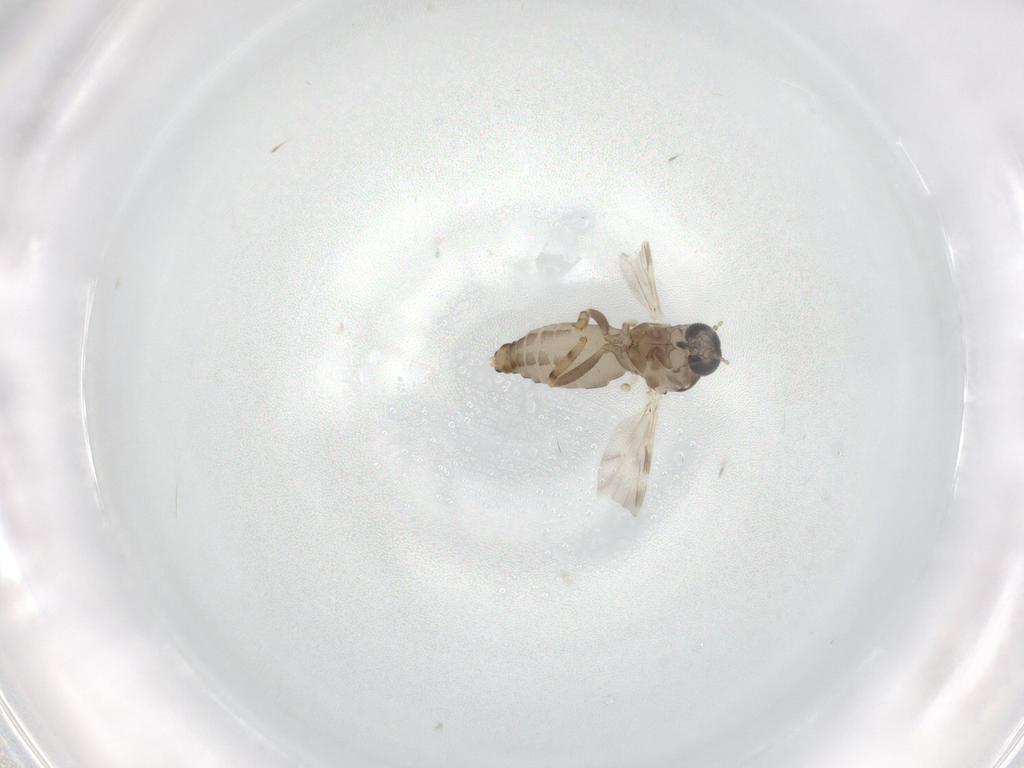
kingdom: Animalia
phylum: Arthropoda
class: Insecta
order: Diptera
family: Ceratopogonidae
